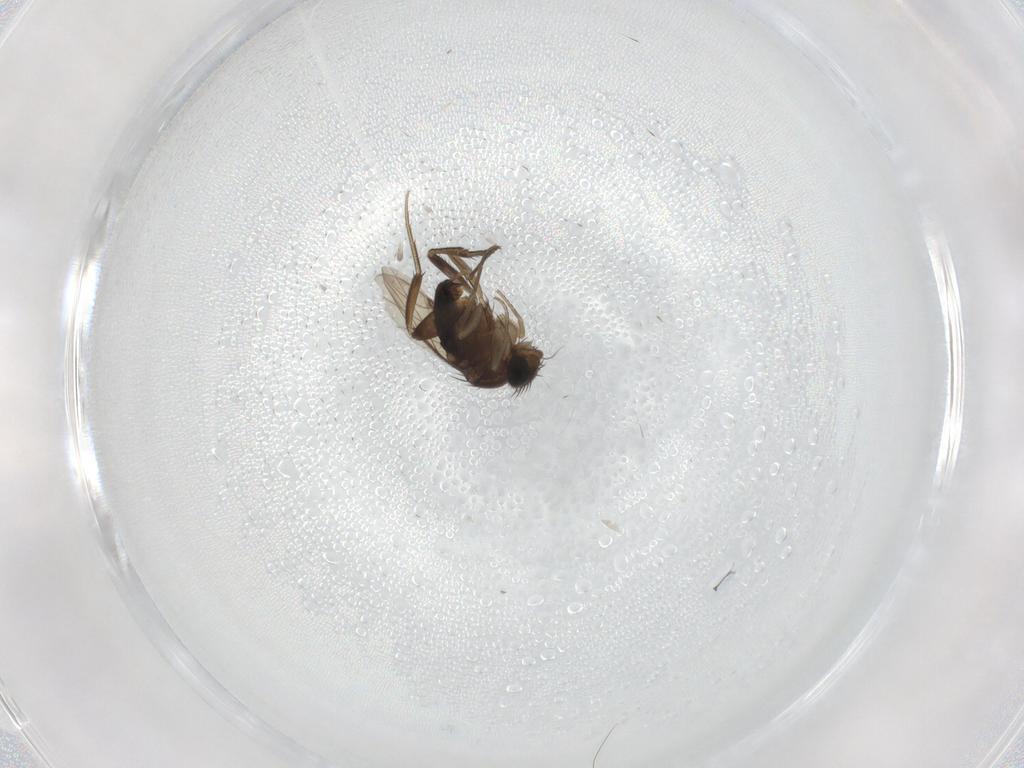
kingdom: Animalia
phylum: Arthropoda
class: Insecta
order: Diptera
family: Phoridae
